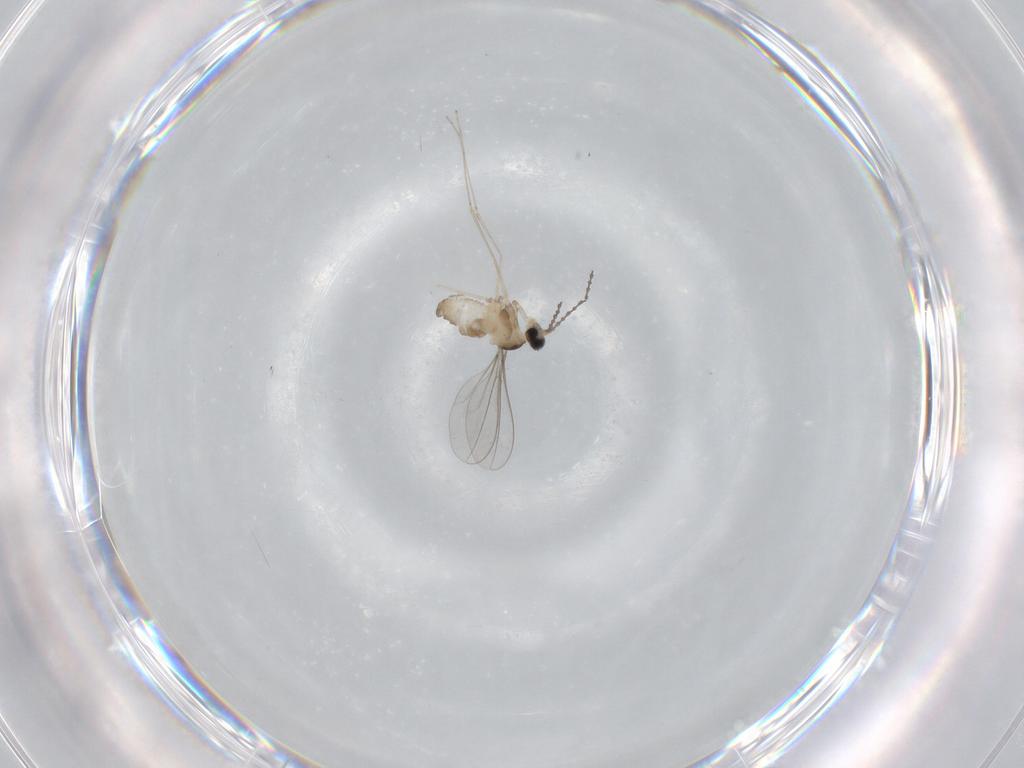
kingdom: Animalia
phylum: Arthropoda
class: Insecta
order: Diptera
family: Cecidomyiidae
